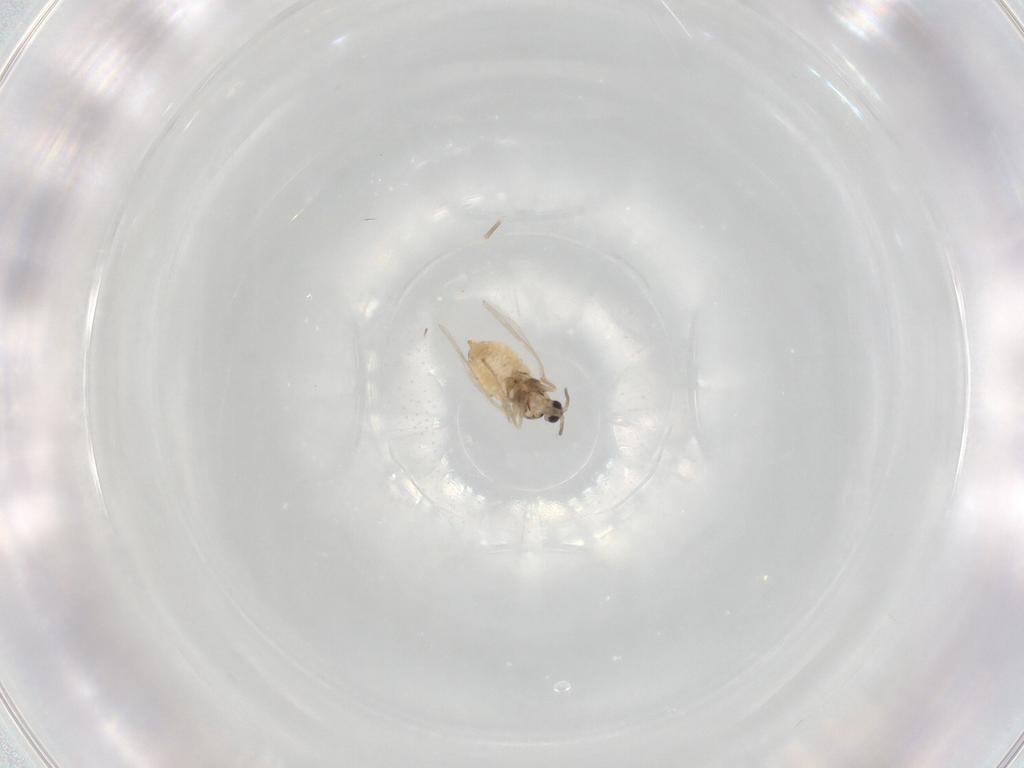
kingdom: Animalia
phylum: Arthropoda
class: Insecta
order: Diptera
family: Cecidomyiidae
